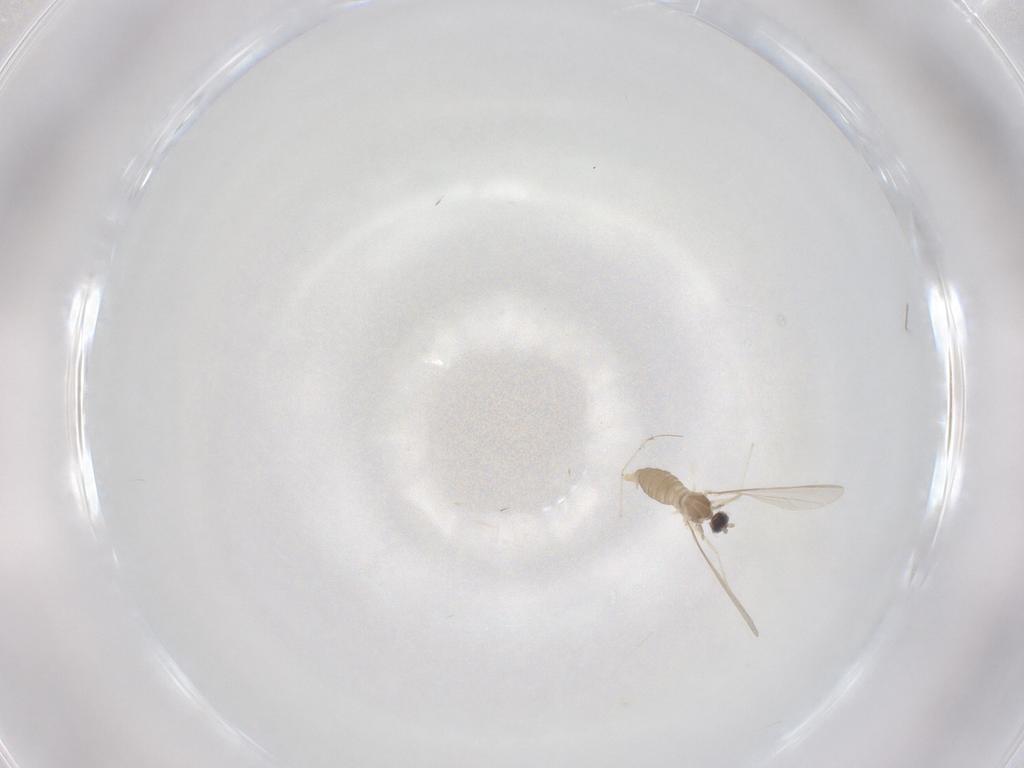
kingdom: Animalia
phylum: Arthropoda
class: Insecta
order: Diptera
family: Cecidomyiidae
